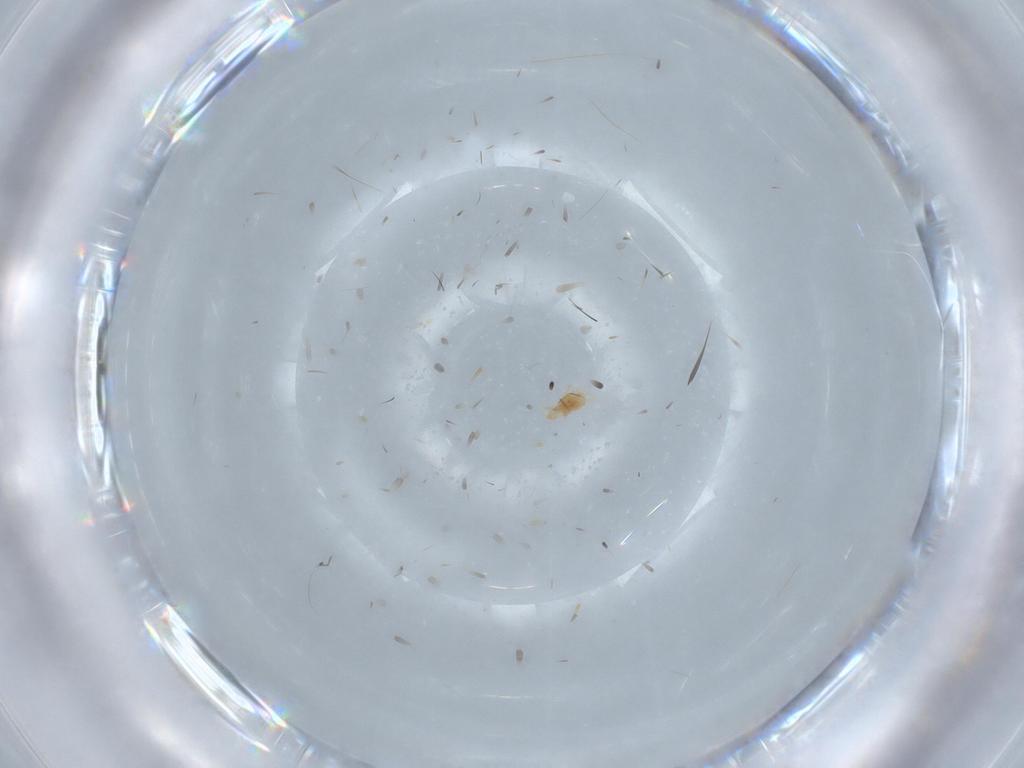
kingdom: Animalia
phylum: Arthropoda
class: Arachnida
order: Trombidiformes
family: Tetranychidae
